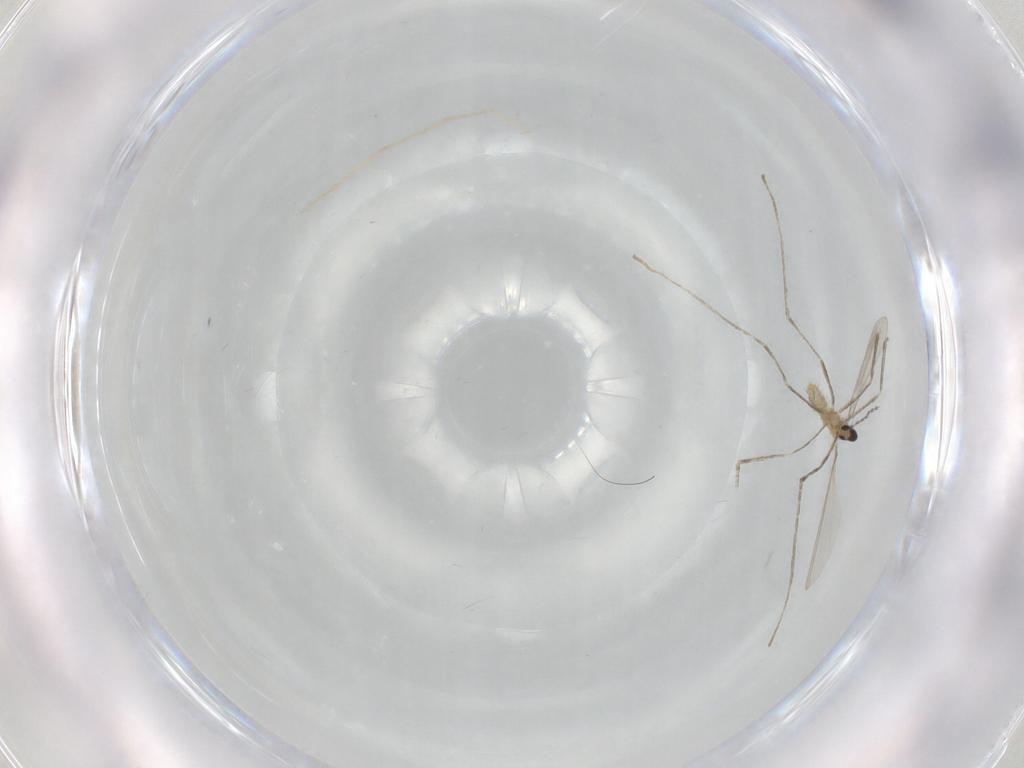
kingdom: Animalia
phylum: Arthropoda
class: Insecta
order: Diptera
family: Cecidomyiidae
